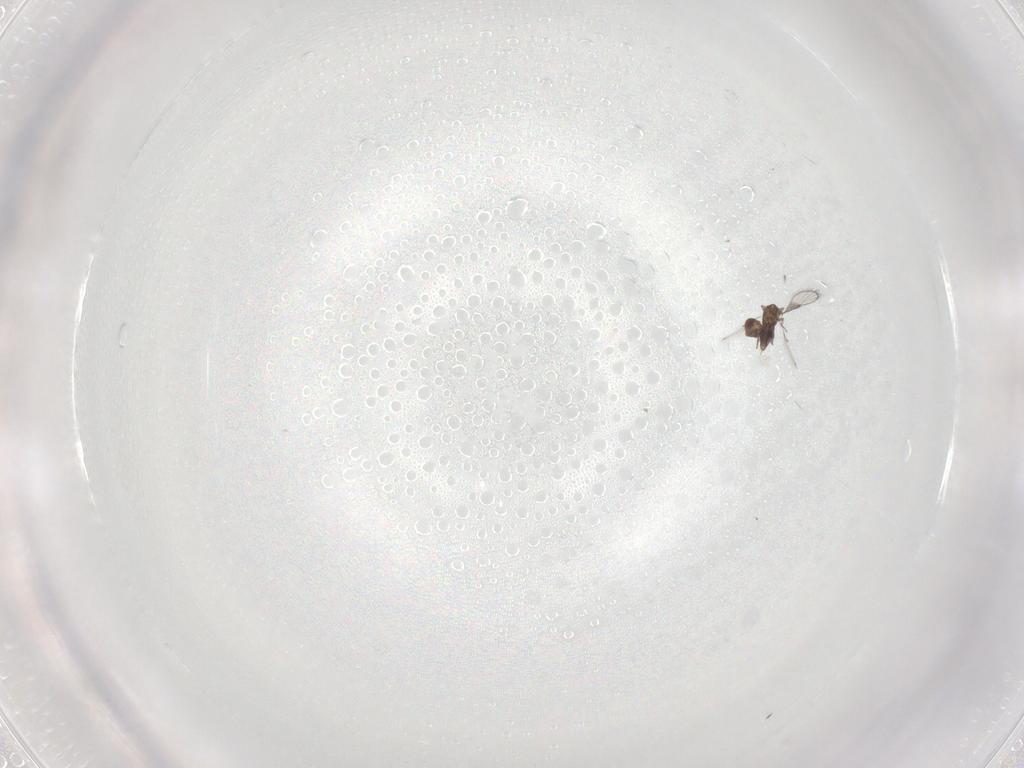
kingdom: Animalia
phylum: Arthropoda
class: Insecta
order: Hymenoptera
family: Trichogrammatidae
